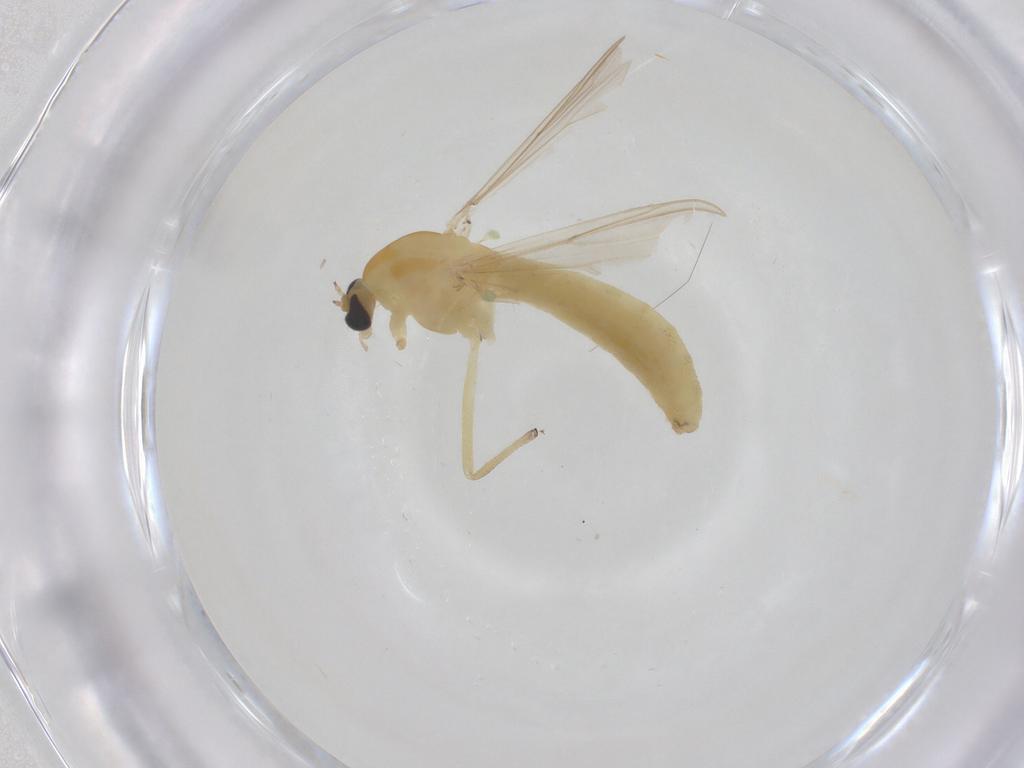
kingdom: Animalia
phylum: Arthropoda
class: Insecta
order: Diptera
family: Chironomidae
